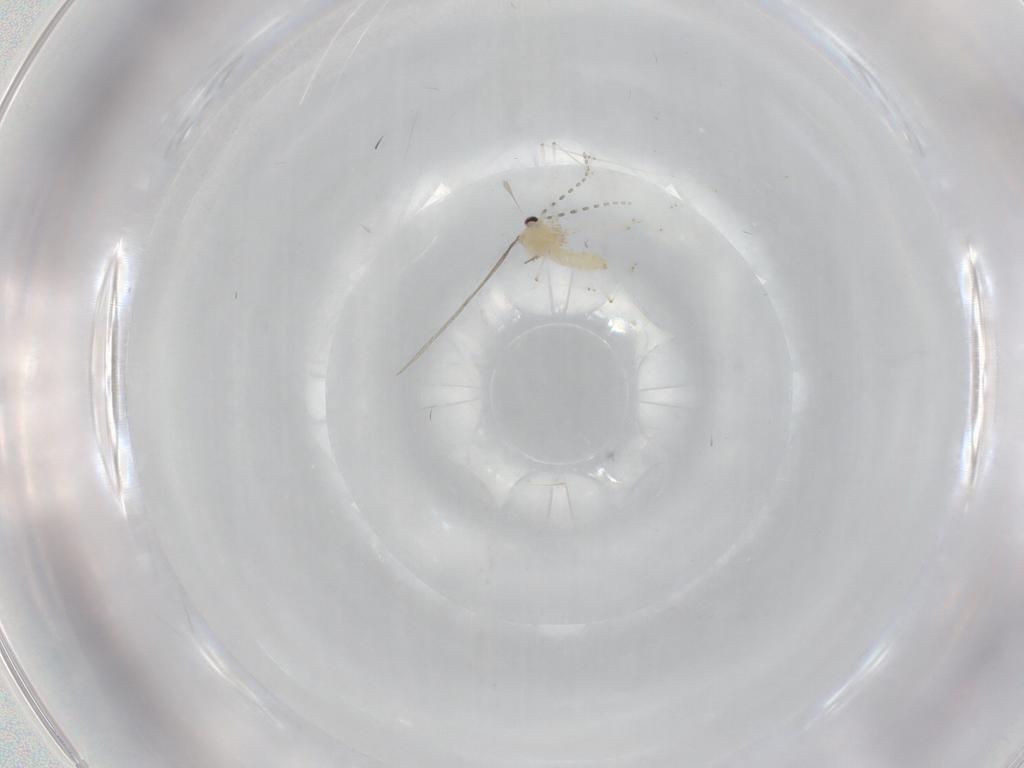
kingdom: Animalia
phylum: Arthropoda
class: Insecta
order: Diptera
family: Cecidomyiidae
